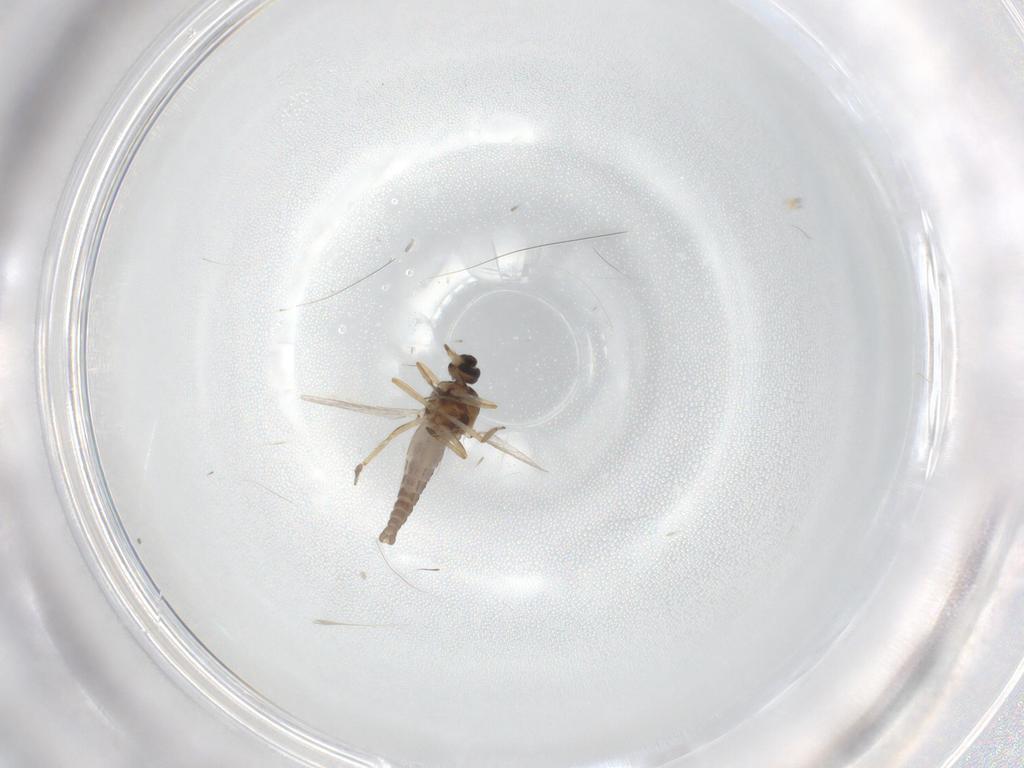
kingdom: Animalia
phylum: Arthropoda
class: Insecta
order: Diptera
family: Ceratopogonidae
